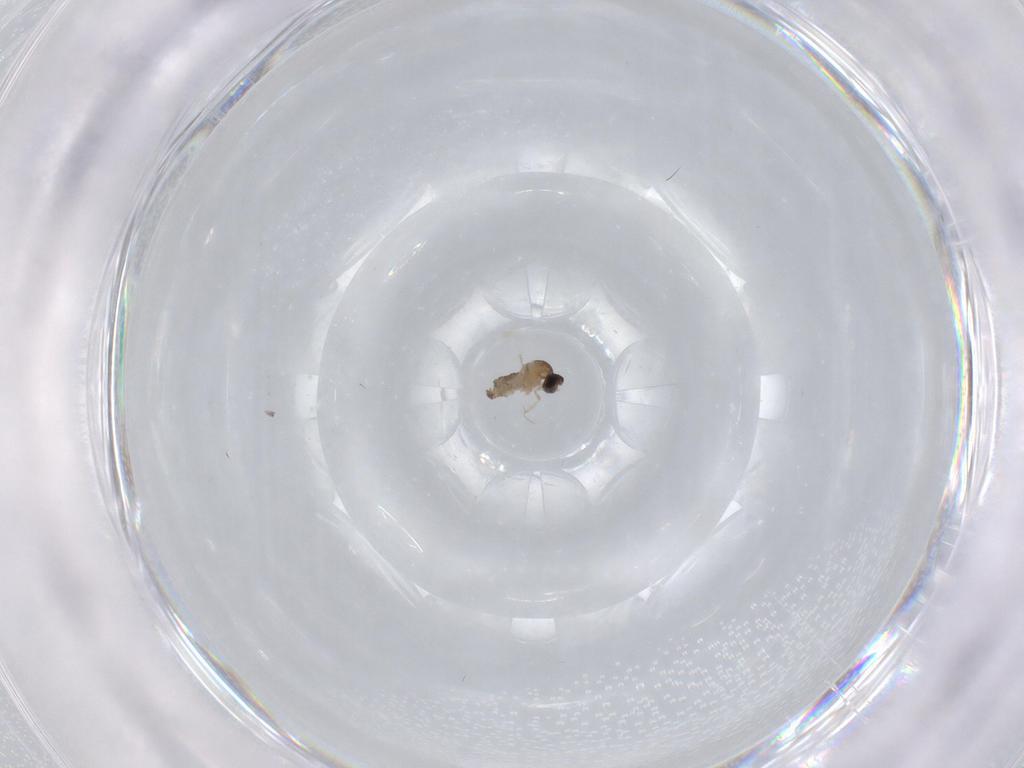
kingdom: Animalia
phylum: Arthropoda
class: Insecta
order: Diptera
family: Cecidomyiidae
